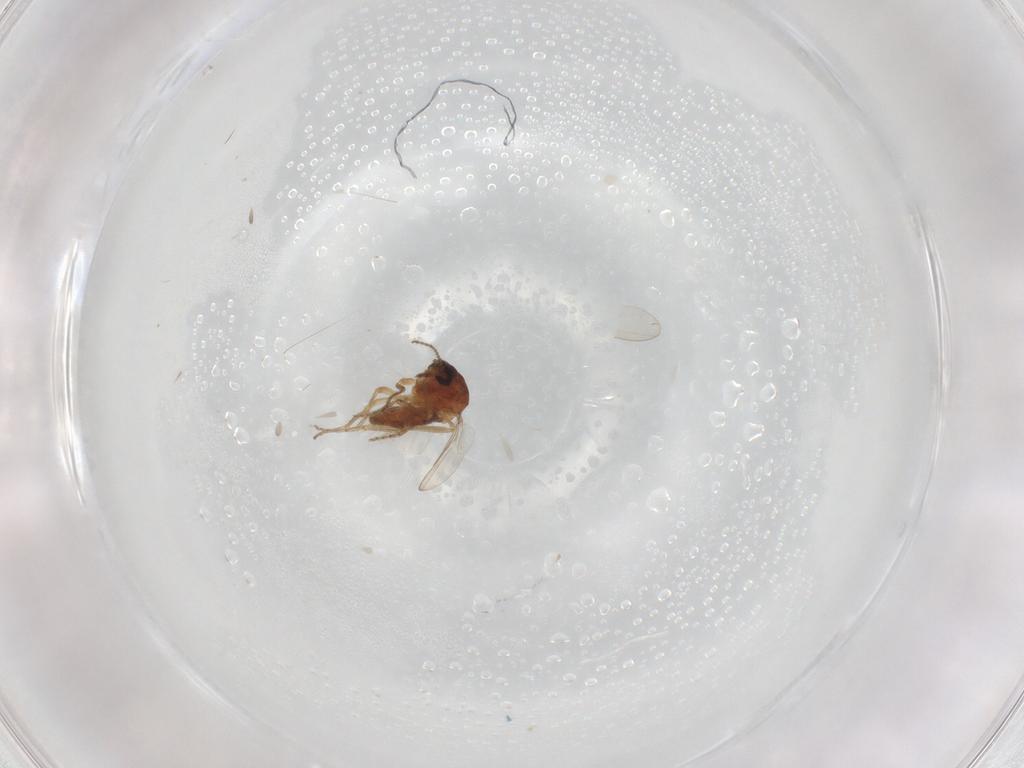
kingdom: Animalia
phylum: Arthropoda
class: Insecta
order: Diptera
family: Ceratopogonidae
